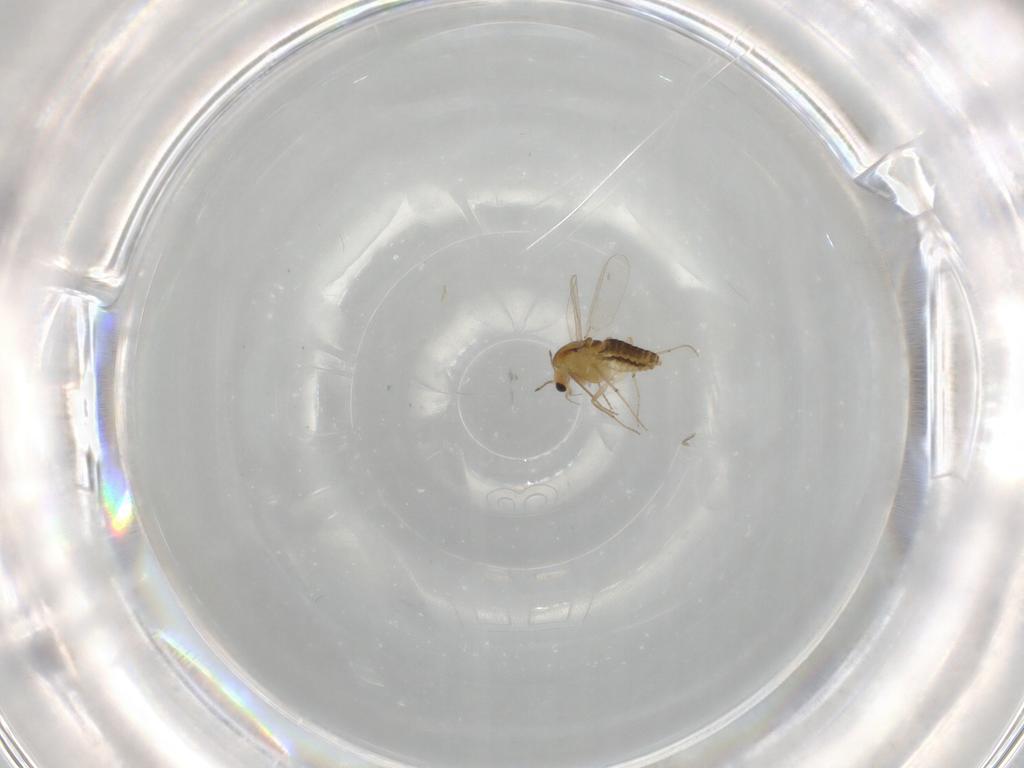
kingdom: Animalia
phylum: Arthropoda
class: Insecta
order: Diptera
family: Chironomidae
